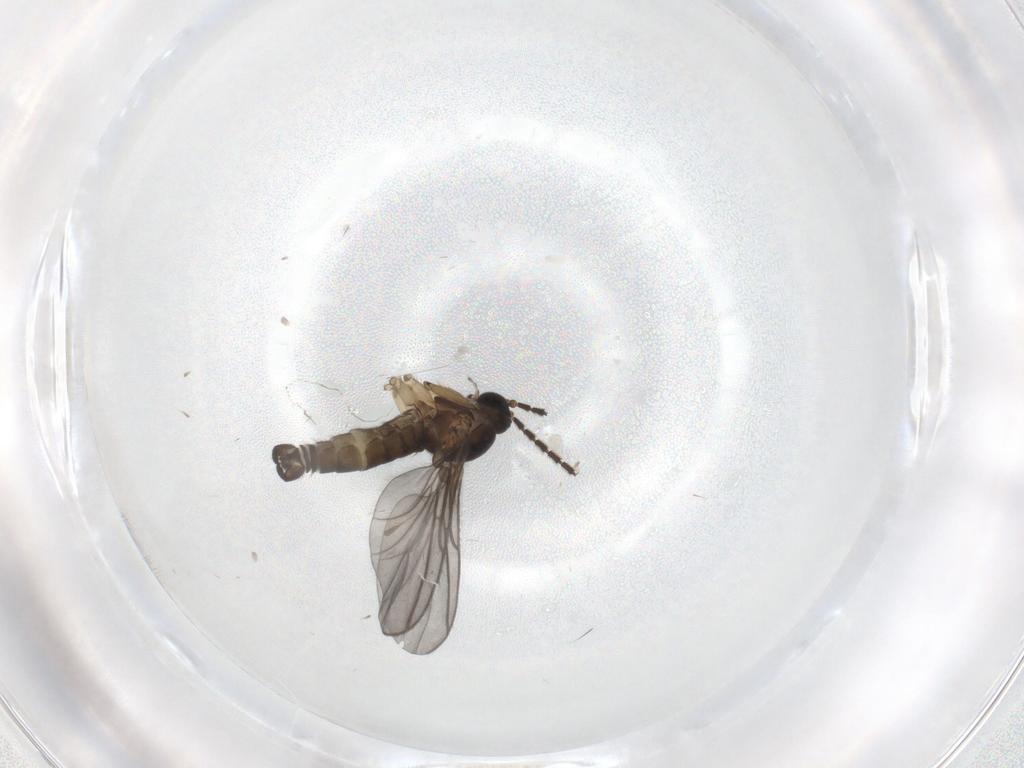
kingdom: Animalia
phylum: Arthropoda
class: Insecta
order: Diptera
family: Sciaridae
